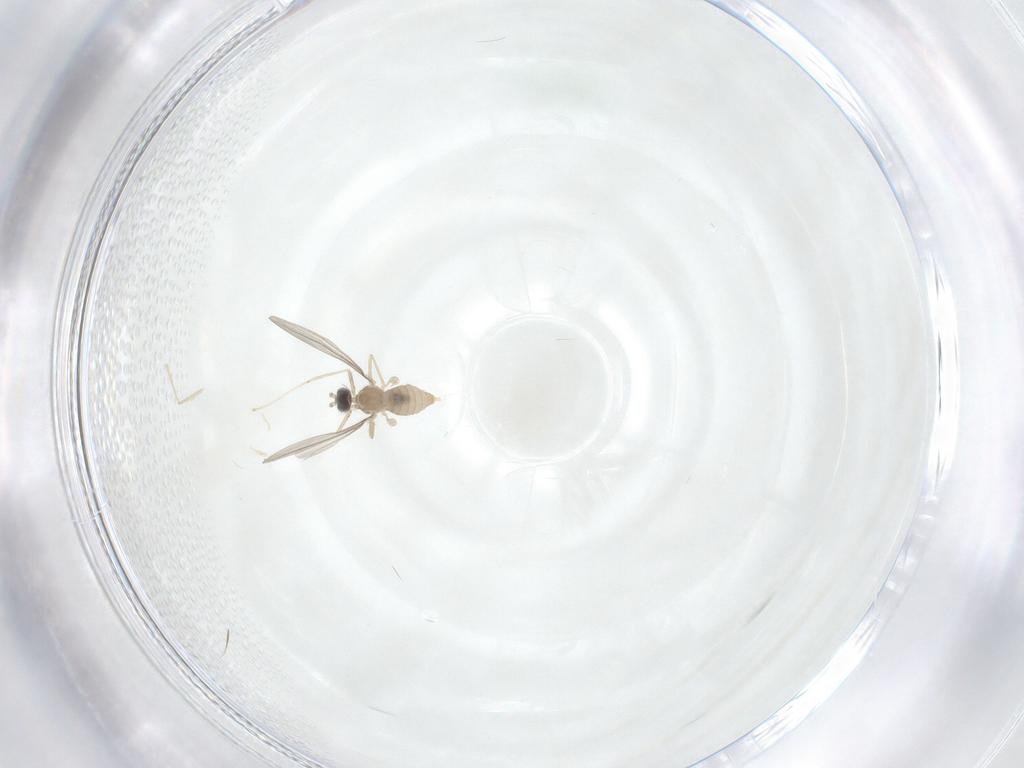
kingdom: Animalia
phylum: Arthropoda
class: Insecta
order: Diptera
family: Cecidomyiidae
